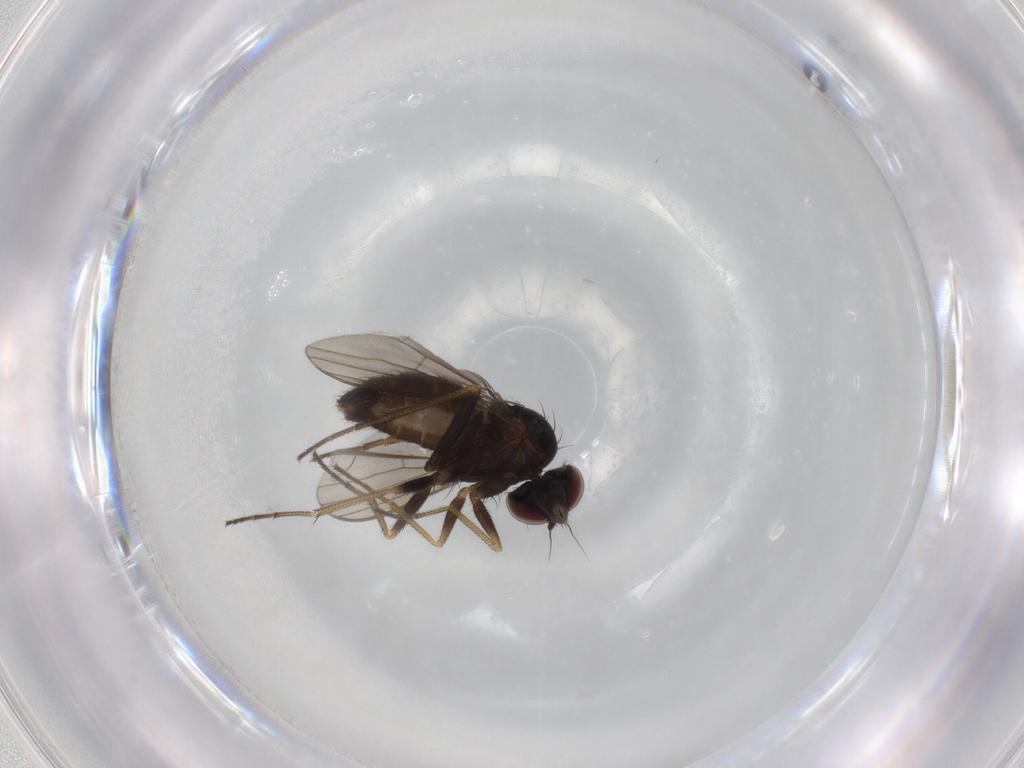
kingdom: Animalia
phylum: Arthropoda
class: Insecta
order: Diptera
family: Dolichopodidae
